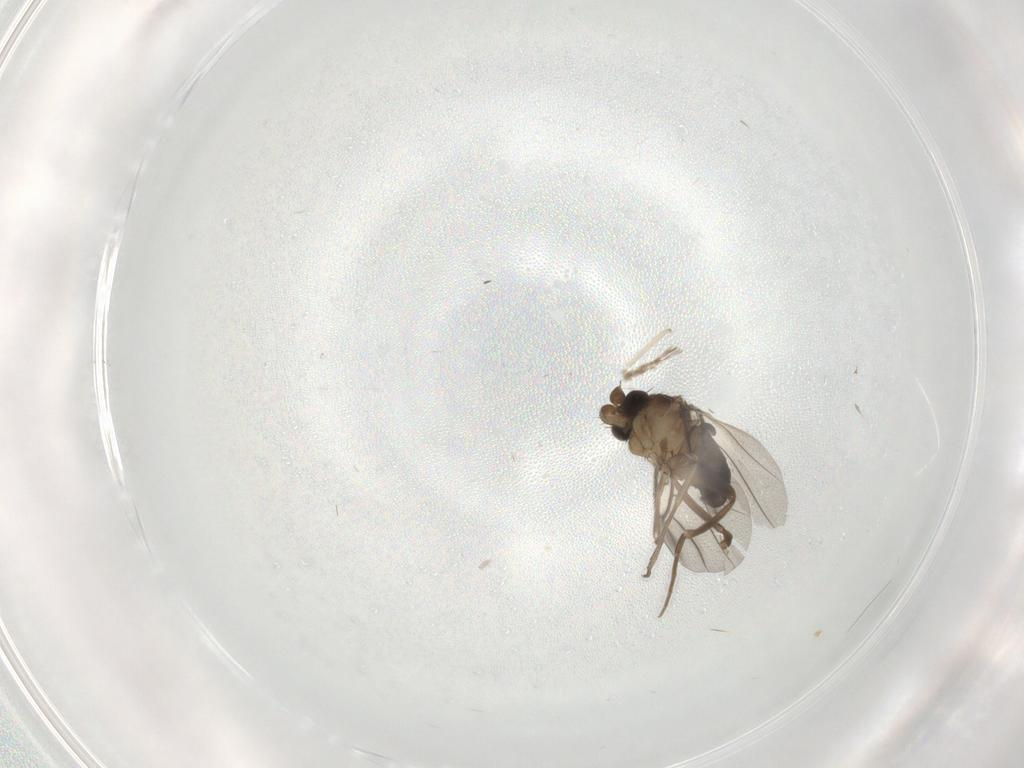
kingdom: Animalia
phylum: Arthropoda
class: Insecta
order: Diptera
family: Cecidomyiidae
